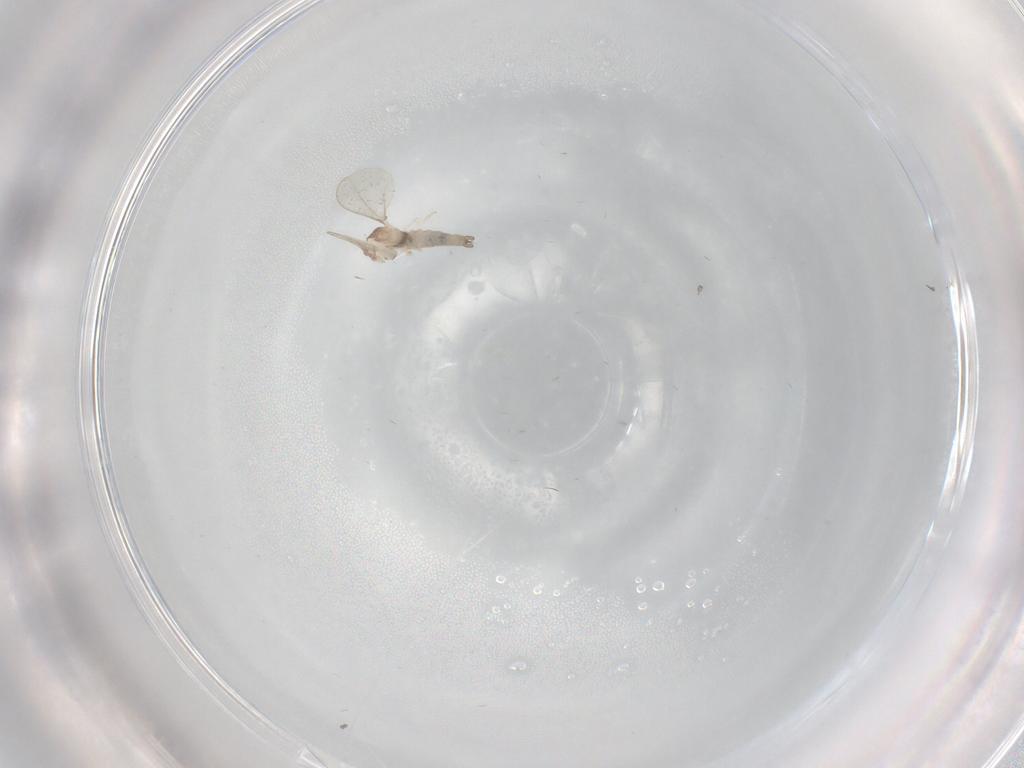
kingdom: Animalia
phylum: Arthropoda
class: Insecta
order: Diptera
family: Cecidomyiidae
